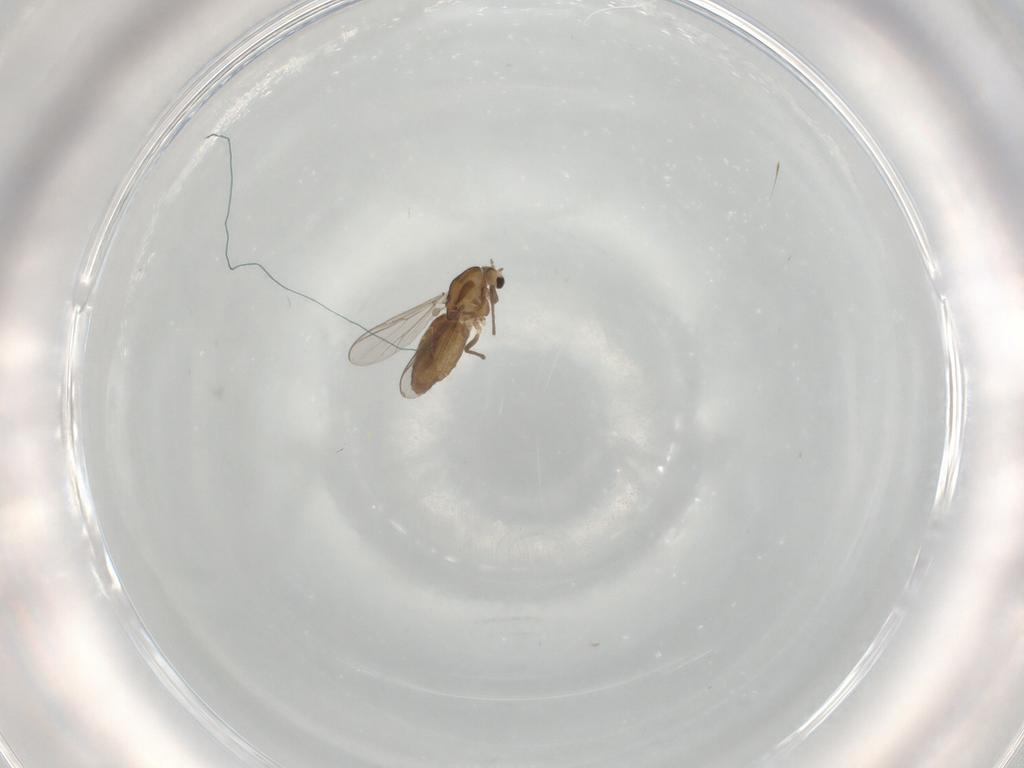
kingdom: Animalia
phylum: Arthropoda
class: Insecta
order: Diptera
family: Chironomidae
